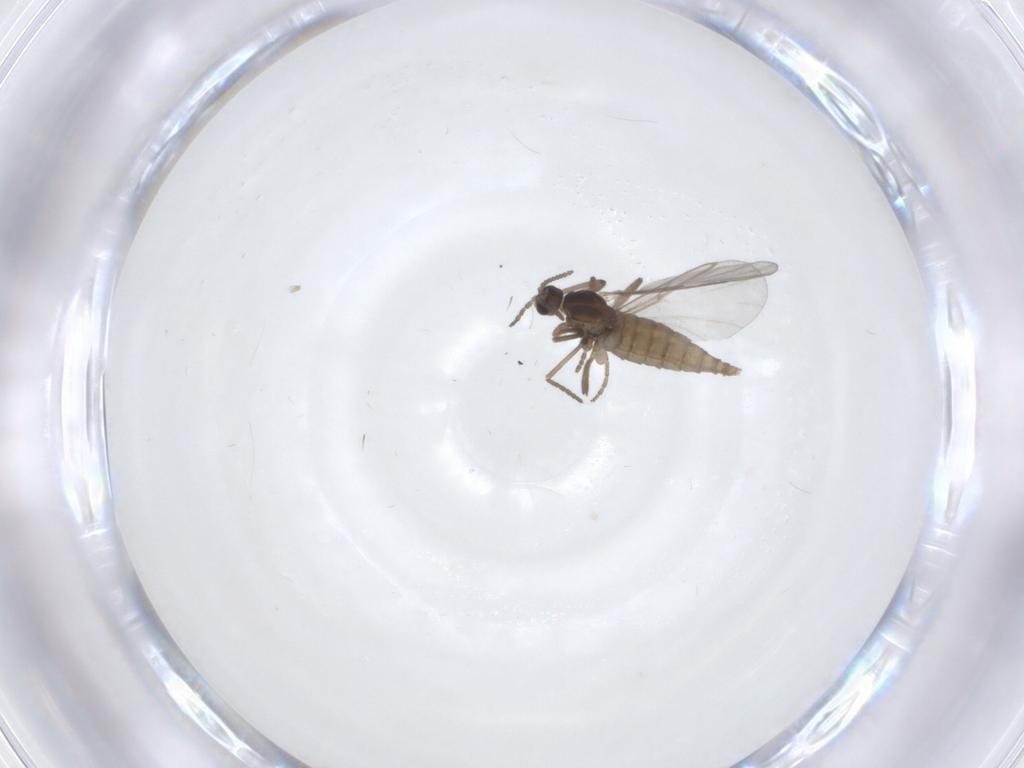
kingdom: Animalia
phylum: Arthropoda
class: Insecta
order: Diptera
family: Cecidomyiidae
